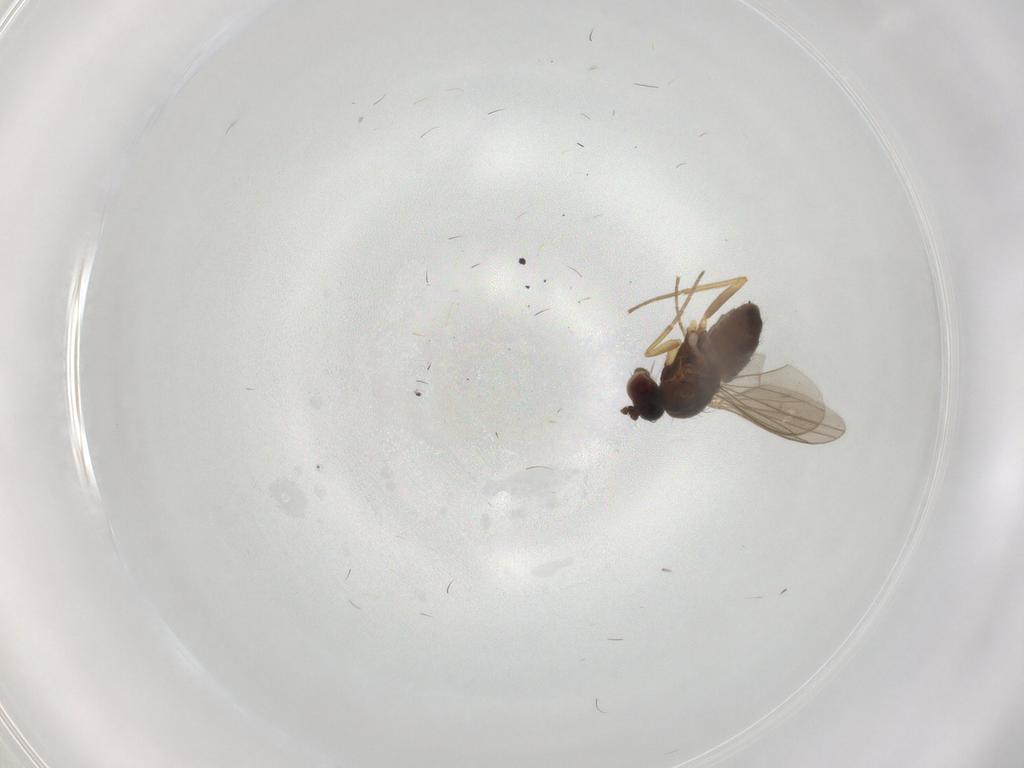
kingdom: Animalia
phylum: Arthropoda
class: Insecta
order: Diptera
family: Dolichopodidae
